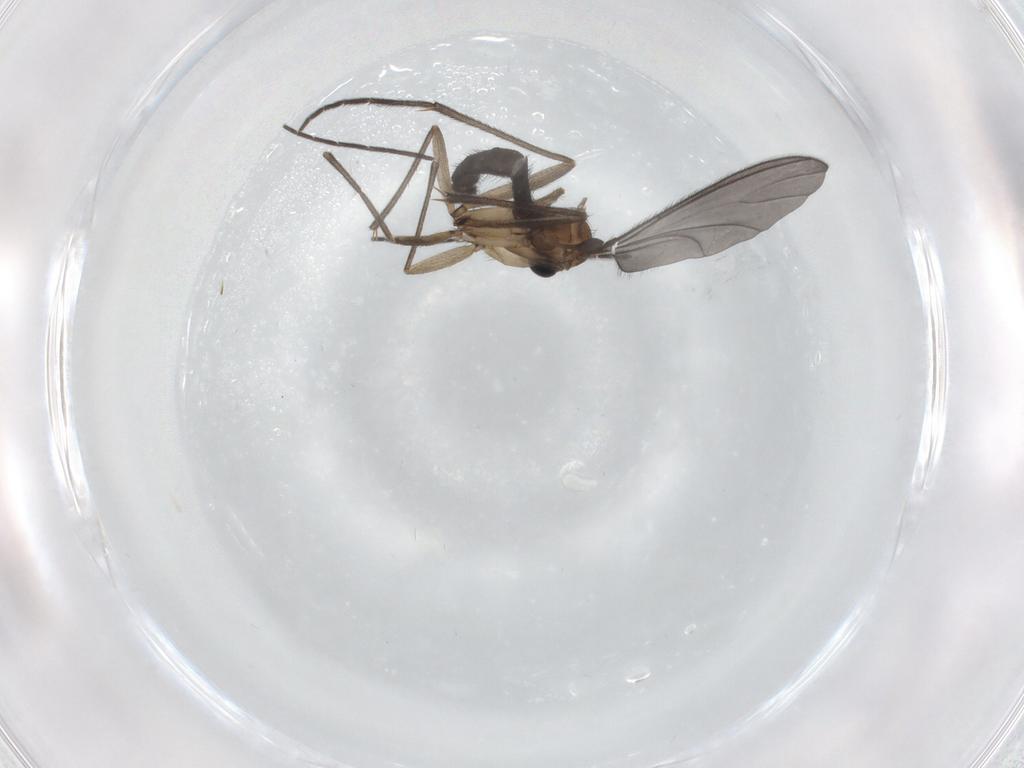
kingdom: Animalia
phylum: Arthropoda
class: Insecta
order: Diptera
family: Sciaridae
